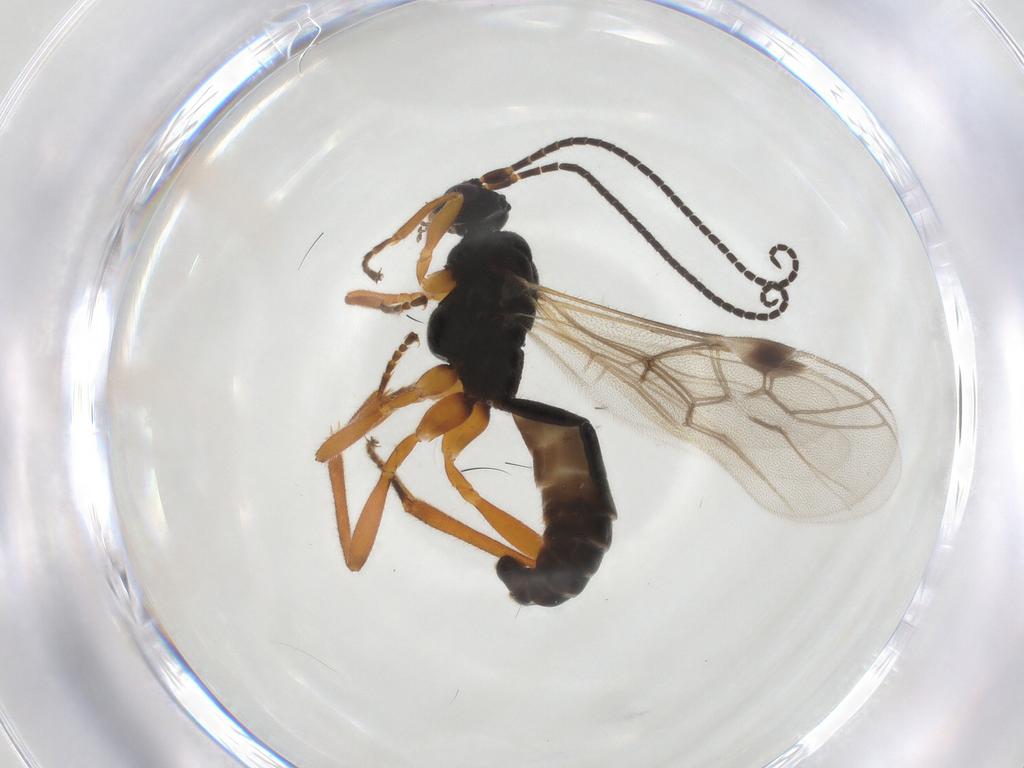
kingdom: Animalia
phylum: Arthropoda
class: Insecta
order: Hymenoptera
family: Braconidae
